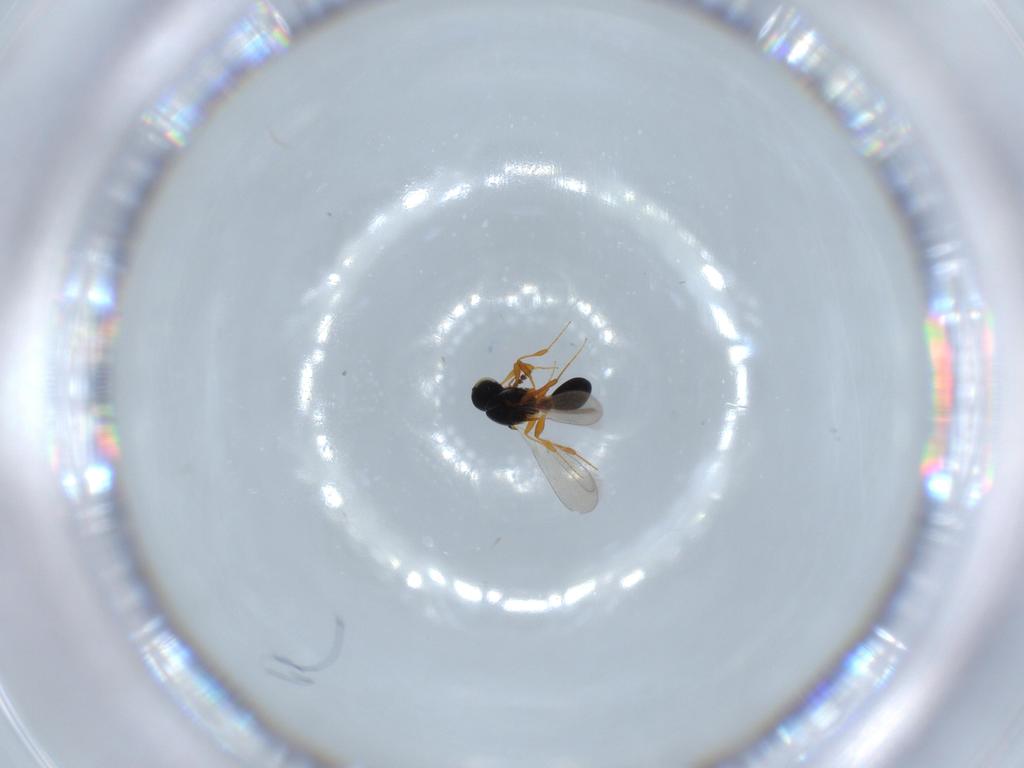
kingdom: Animalia
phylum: Arthropoda
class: Insecta
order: Hymenoptera
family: Platygastridae
